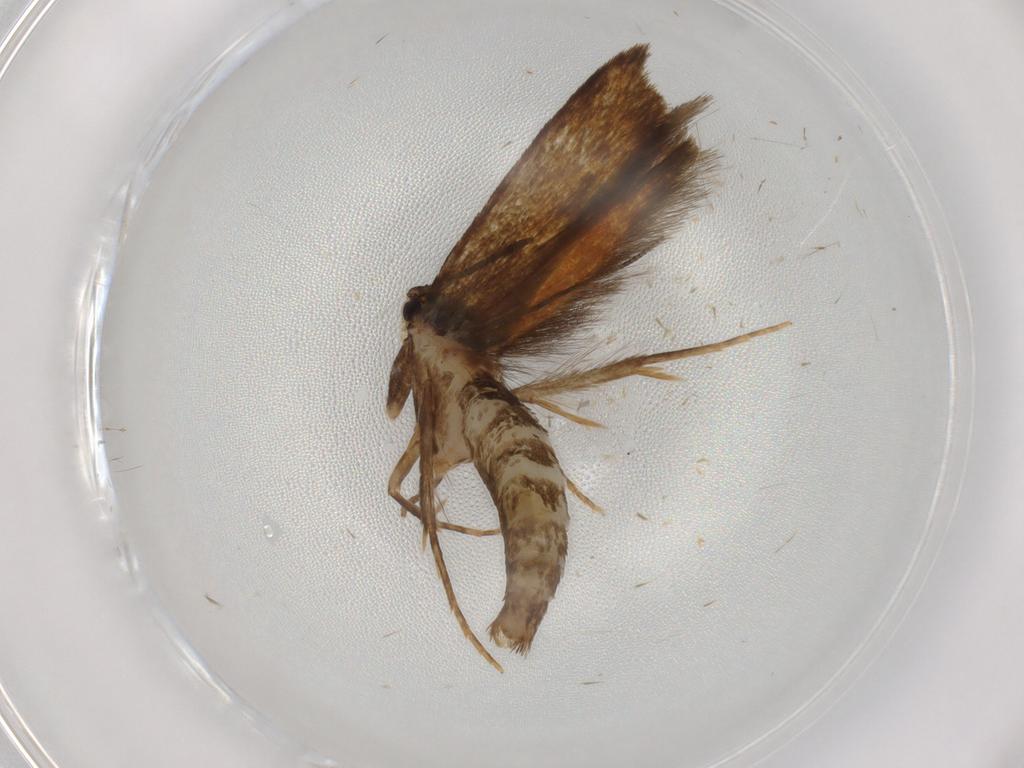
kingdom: Animalia
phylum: Arthropoda
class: Insecta
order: Lepidoptera
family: Tineidae
